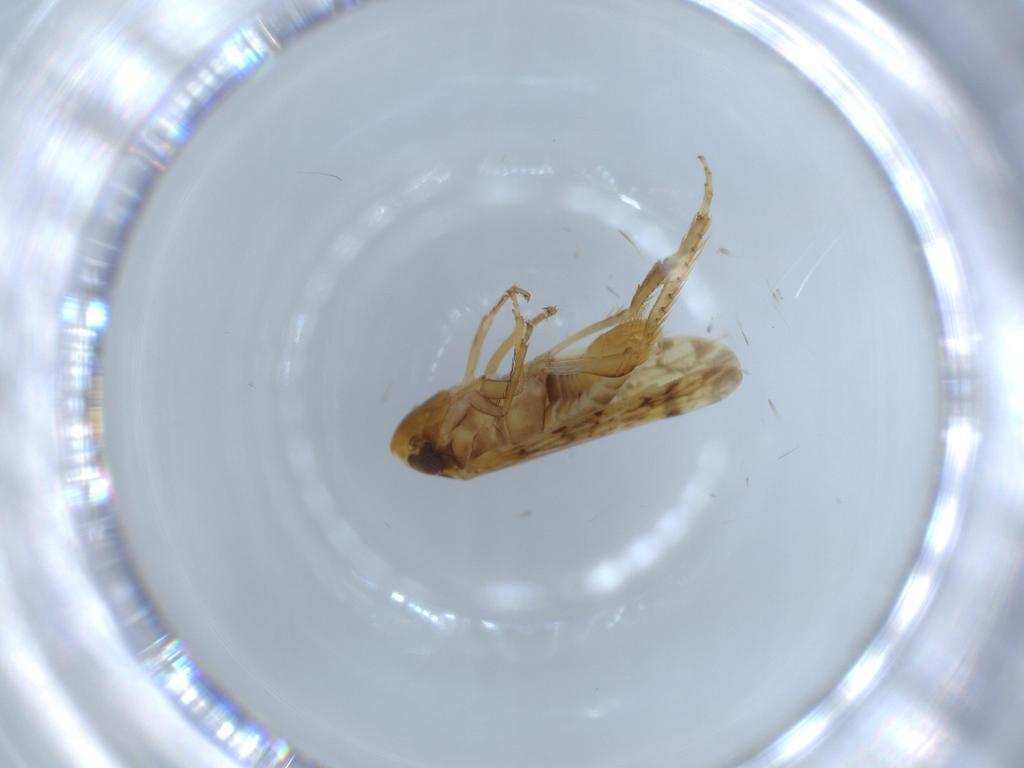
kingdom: Animalia
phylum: Arthropoda
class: Insecta
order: Hemiptera
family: Cicadellidae
